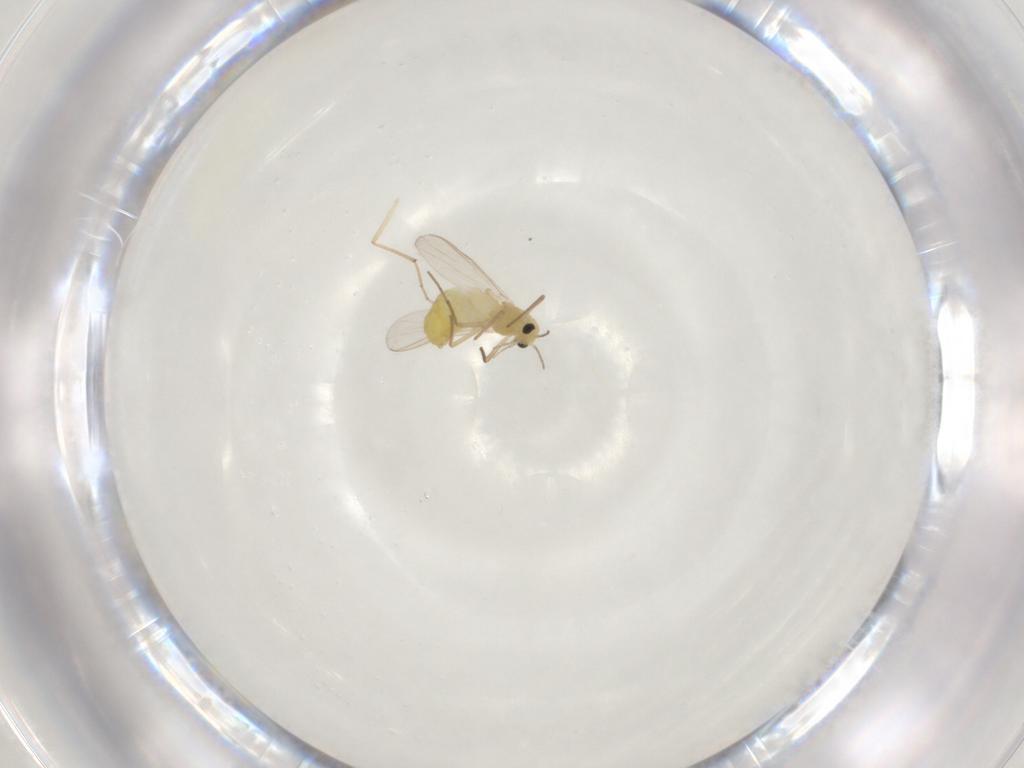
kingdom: Animalia
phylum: Arthropoda
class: Insecta
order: Diptera
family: Chironomidae
